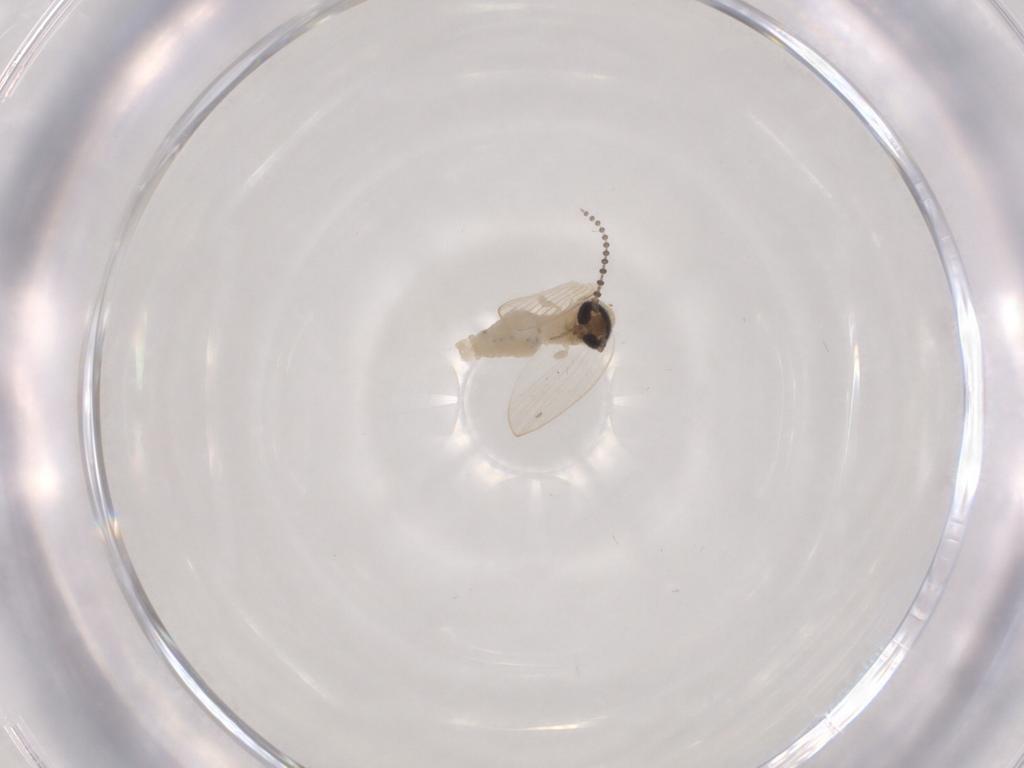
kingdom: Animalia
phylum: Arthropoda
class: Insecta
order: Diptera
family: Psychodidae
